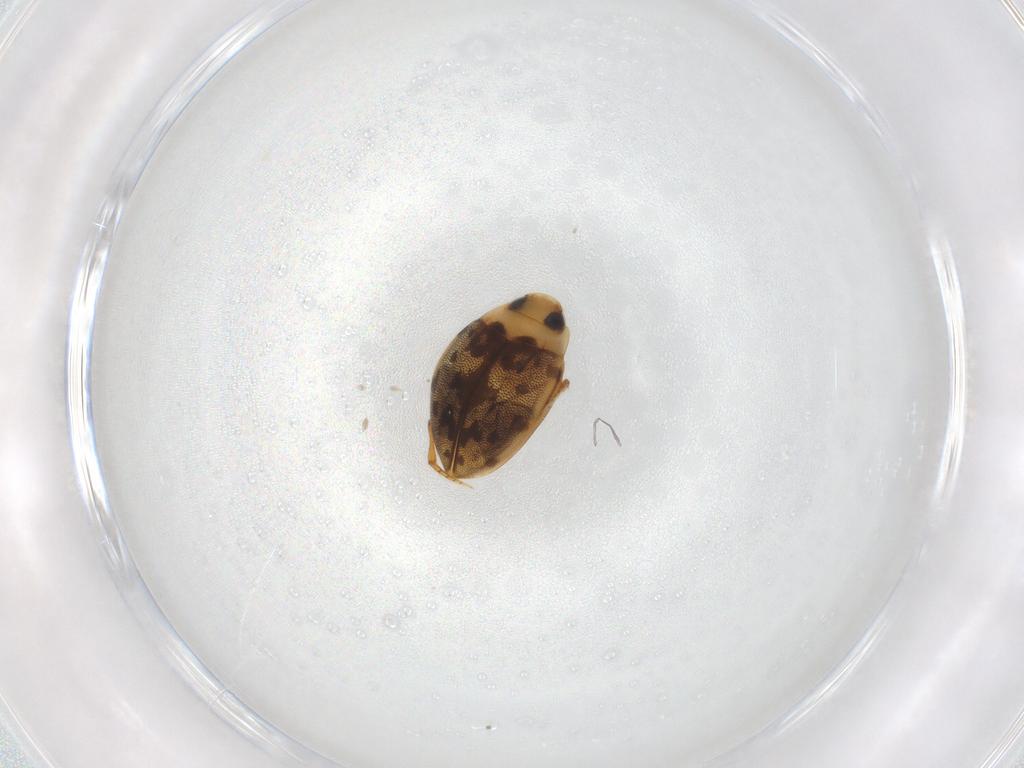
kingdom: Animalia
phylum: Arthropoda
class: Insecta
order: Coleoptera
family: Dytiscidae
